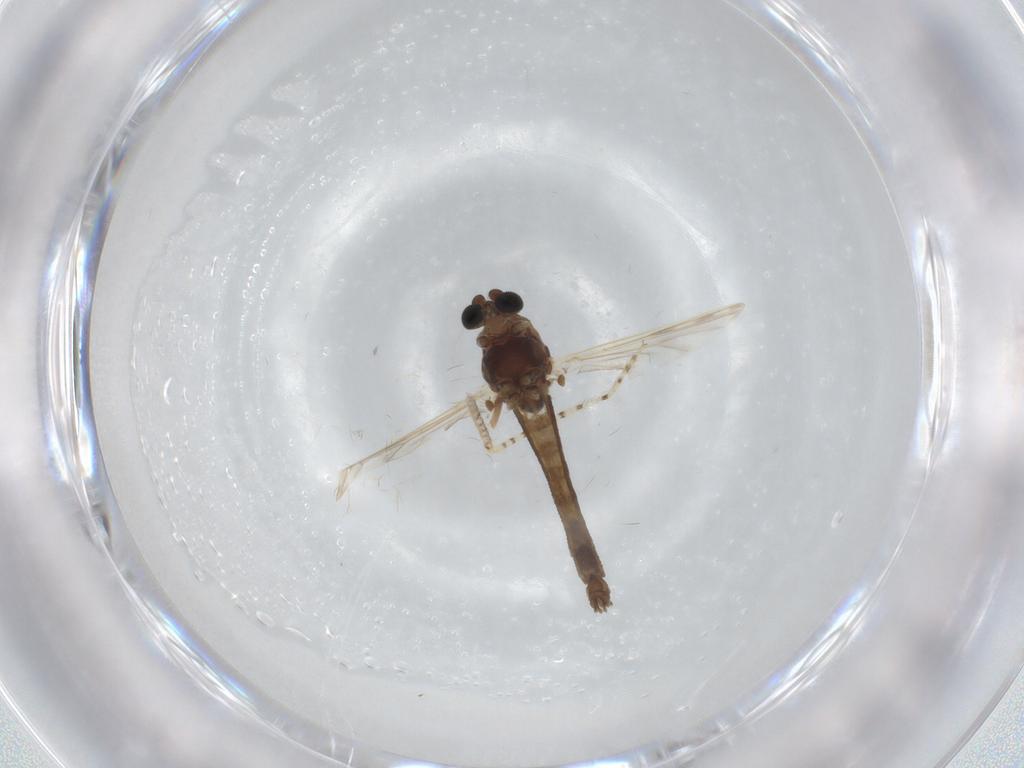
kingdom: Animalia
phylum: Arthropoda
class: Insecta
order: Diptera
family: Chironomidae
